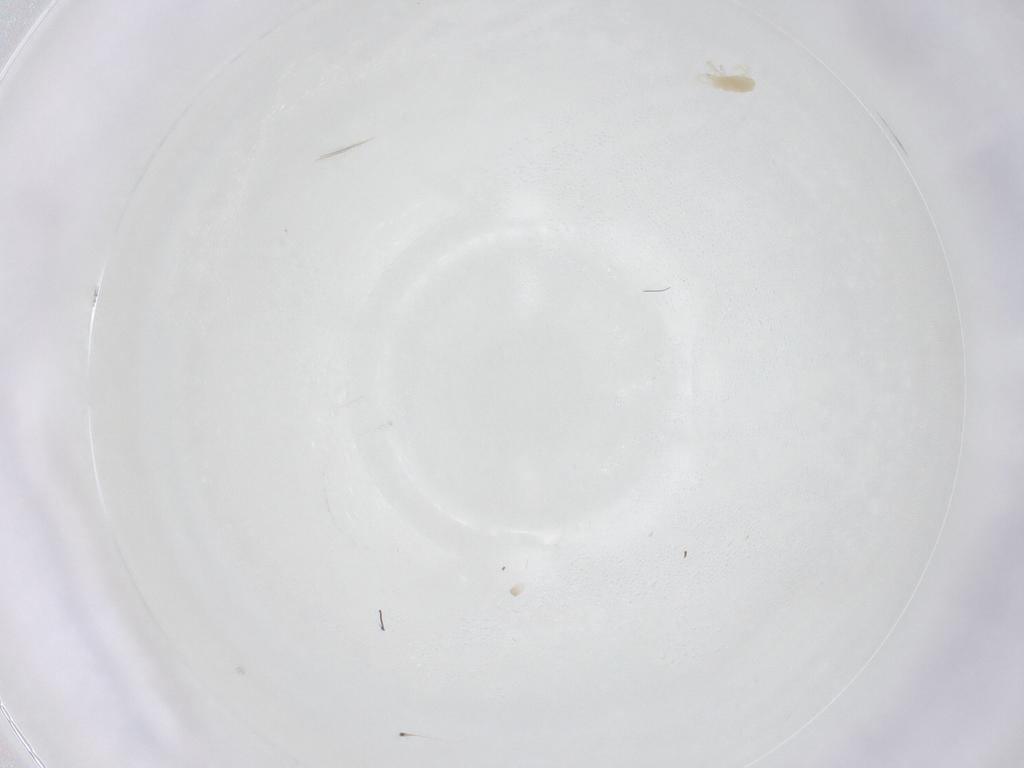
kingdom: Animalia
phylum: Arthropoda
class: Arachnida
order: Trombidiformes
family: Tetranychidae
